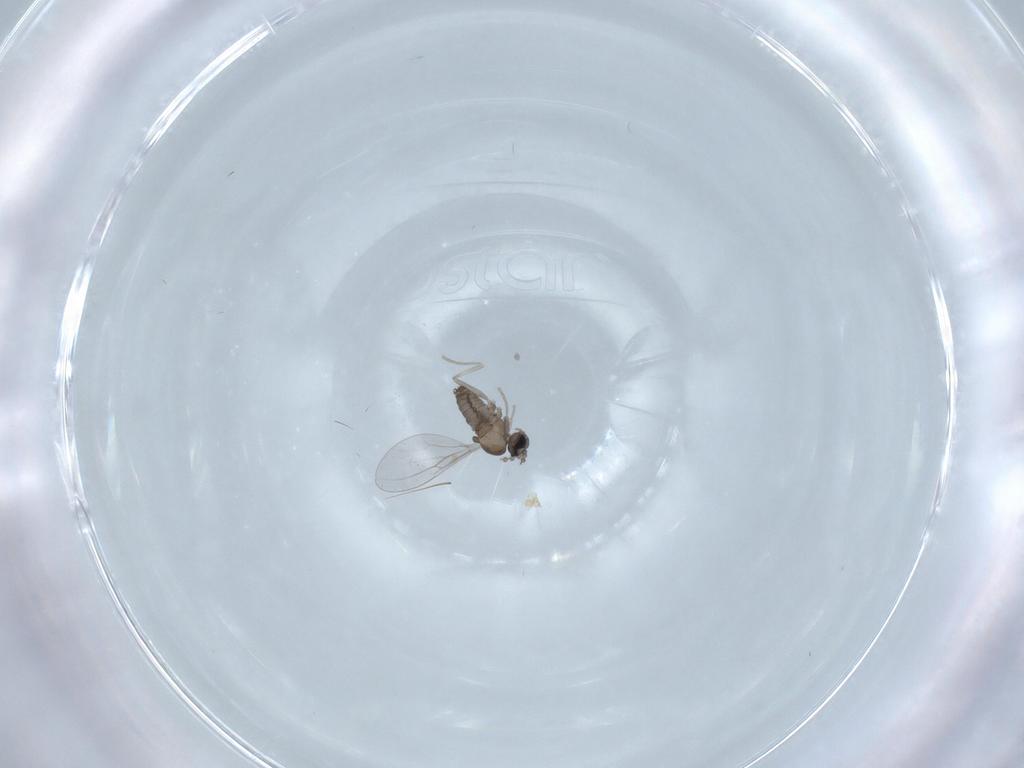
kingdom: Animalia
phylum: Arthropoda
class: Insecta
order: Diptera
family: Cecidomyiidae
